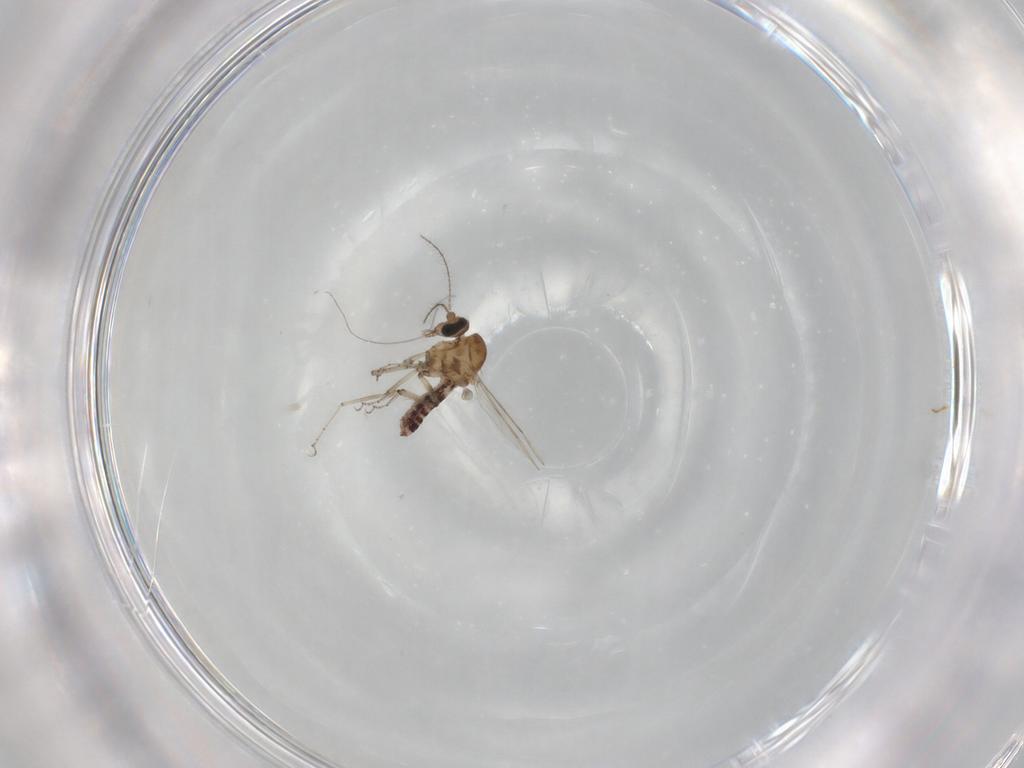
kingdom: Animalia
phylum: Arthropoda
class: Insecta
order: Diptera
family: Ceratopogonidae
